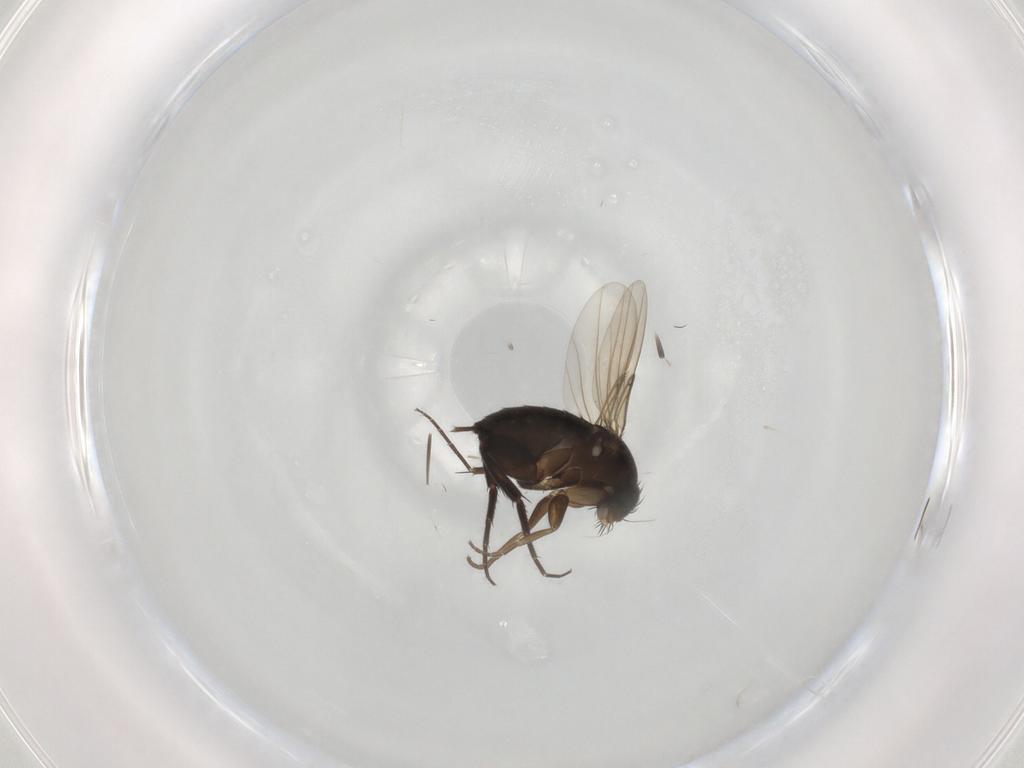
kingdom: Animalia
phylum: Arthropoda
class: Insecta
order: Diptera
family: Phoridae
